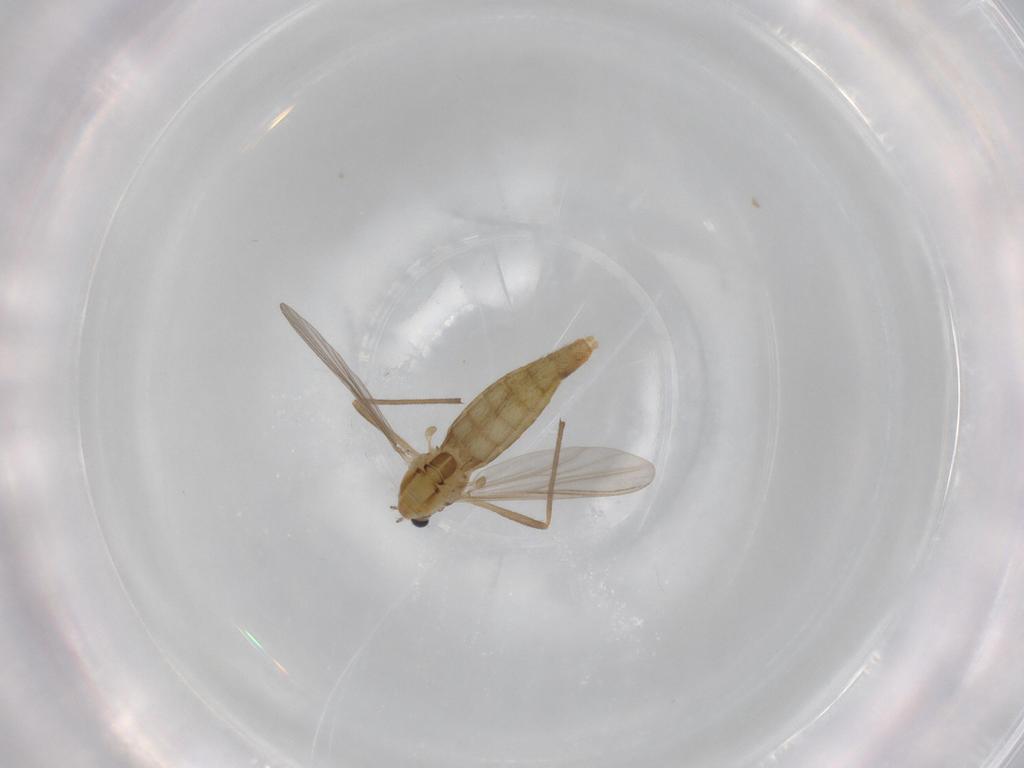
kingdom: Animalia
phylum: Arthropoda
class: Insecta
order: Diptera
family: Chironomidae
